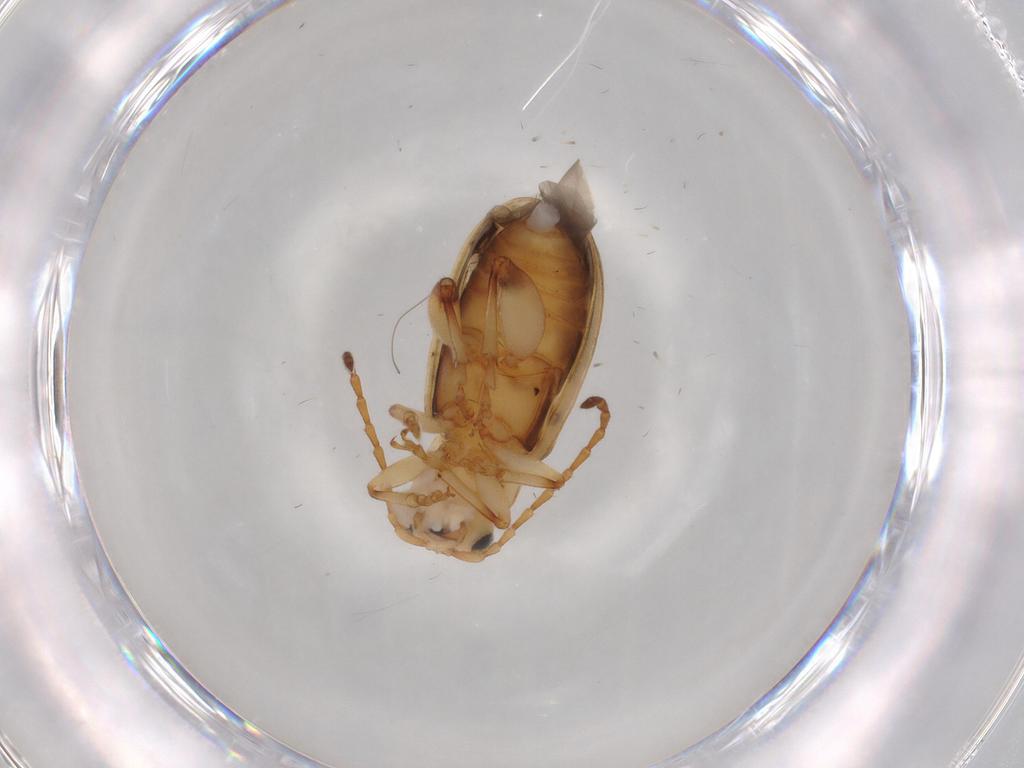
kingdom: Animalia
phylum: Arthropoda
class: Insecta
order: Coleoptera
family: Chrysomelidae
